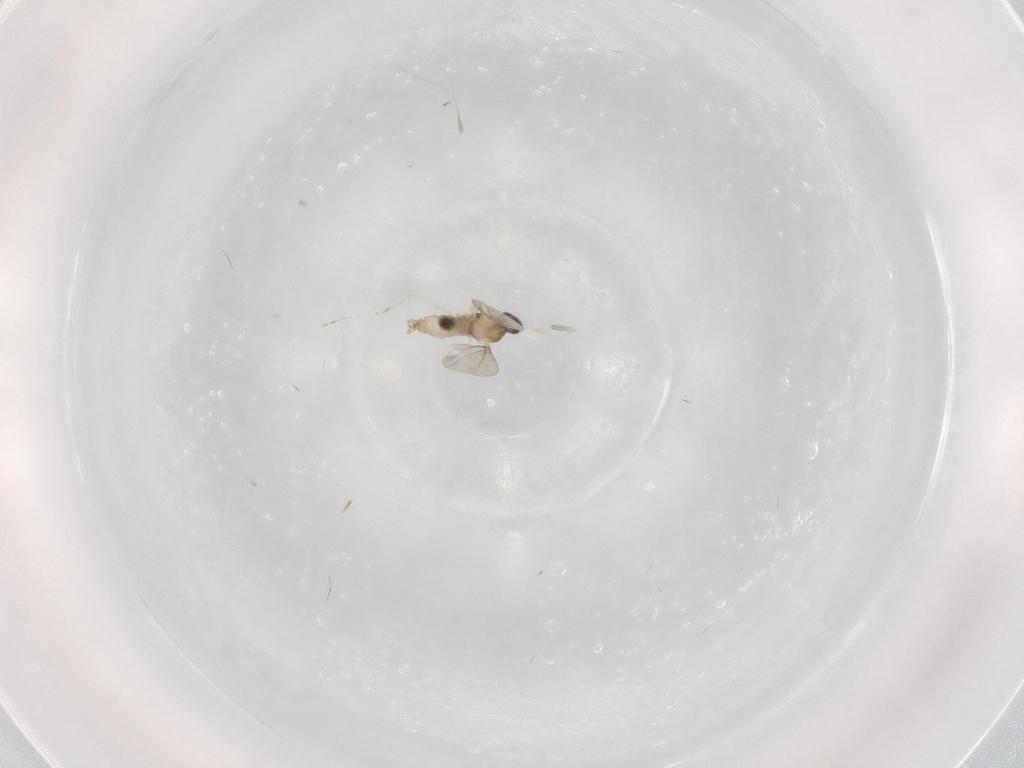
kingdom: Animalia
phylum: Arthropoda
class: Insecta
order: Diptera
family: Cecidomyiidae
